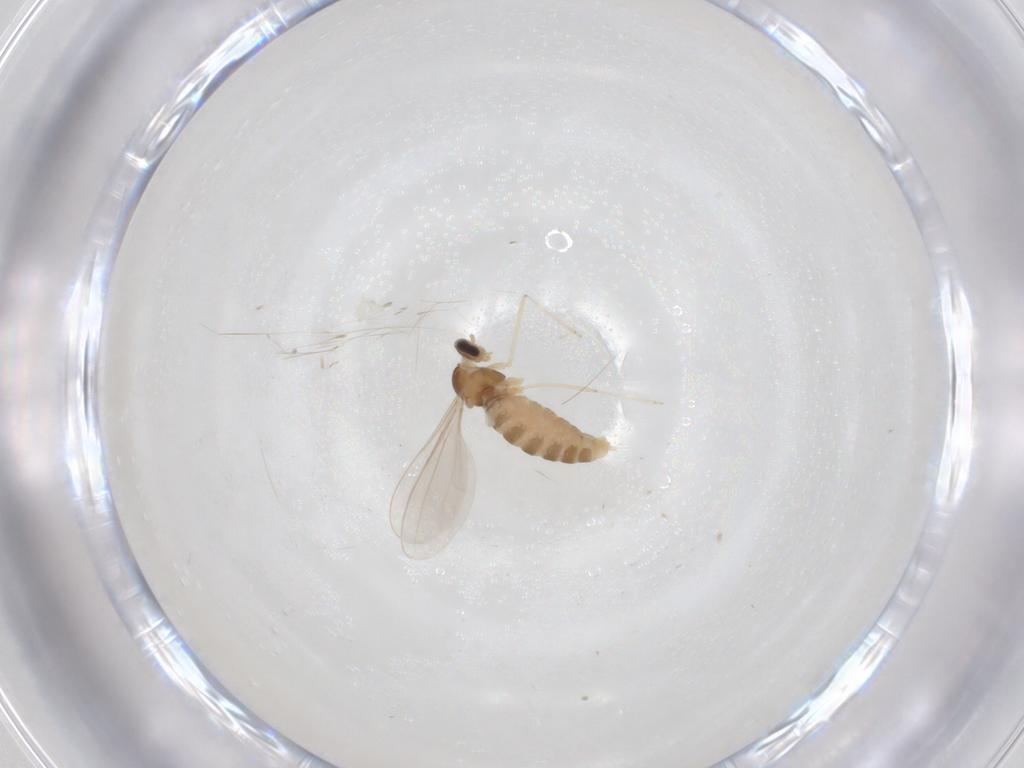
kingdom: Animalia
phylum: Arthropoda
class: Insecta
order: Diptera
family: Cecidomyiidae
